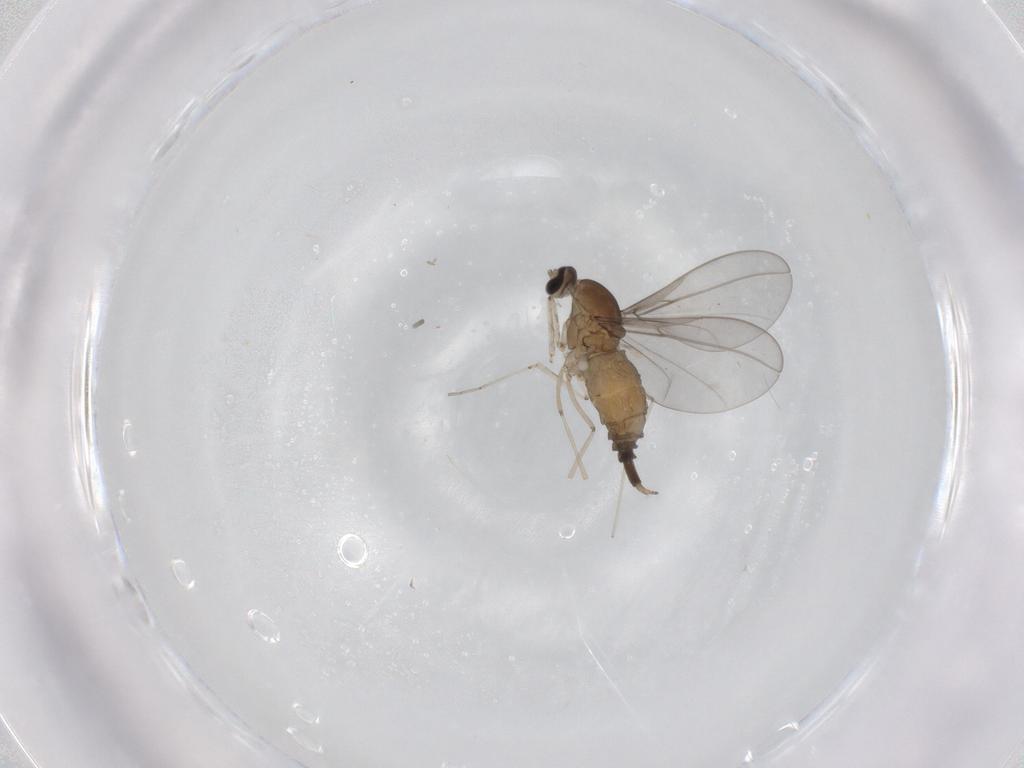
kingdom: Animalia
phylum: Arthropoda
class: Insecta
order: Diptera
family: Cecidomyiidae
